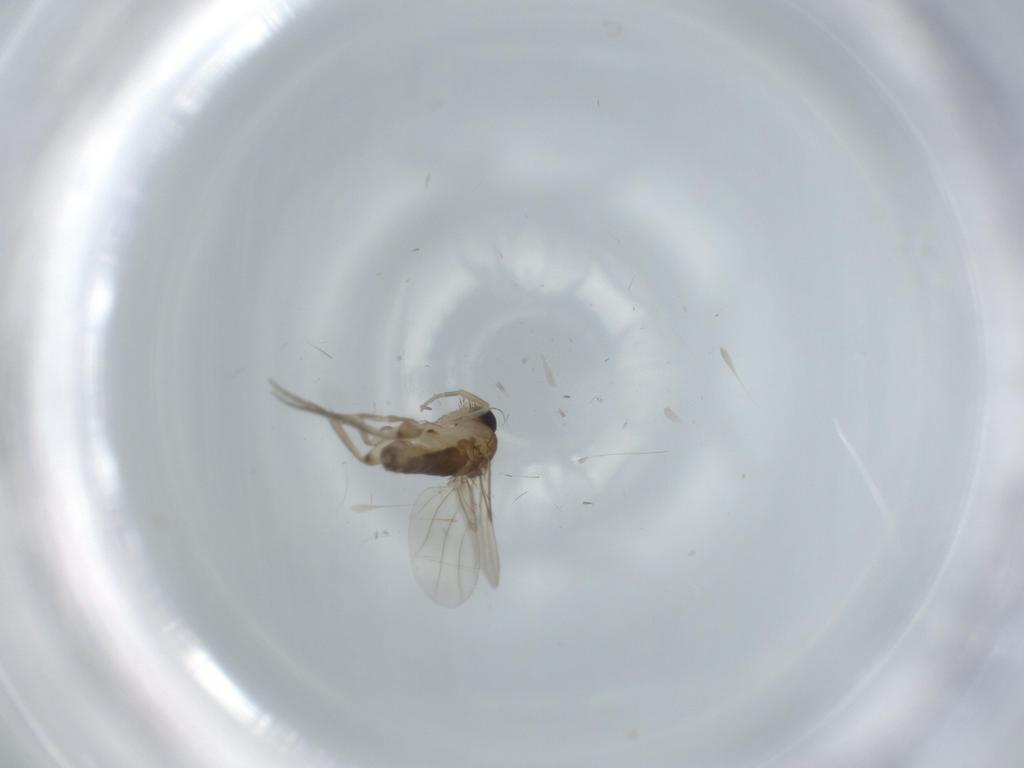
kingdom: Animalia
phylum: Arthropoda
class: Insecta
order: Diptera
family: Phoridae
